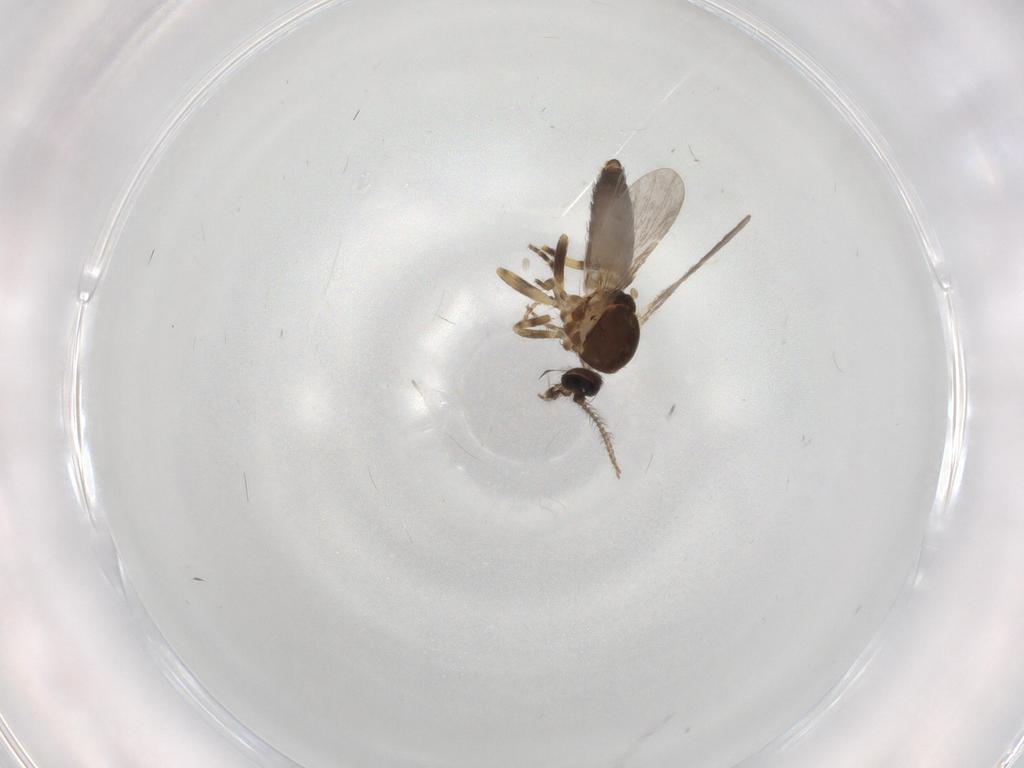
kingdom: Animalia
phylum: Arthropoda
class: Insecta
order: Diptera
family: Ceratopogonidae
